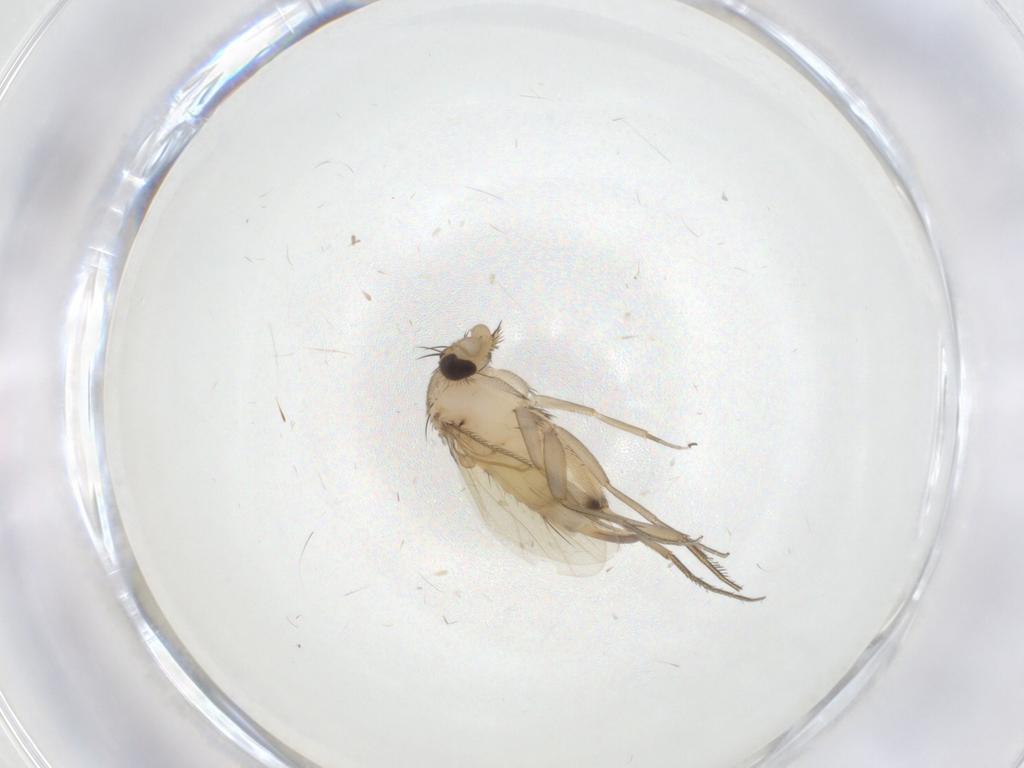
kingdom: Animalia
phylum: Arthropoda
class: Insecta
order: Diptera
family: Phoridae
